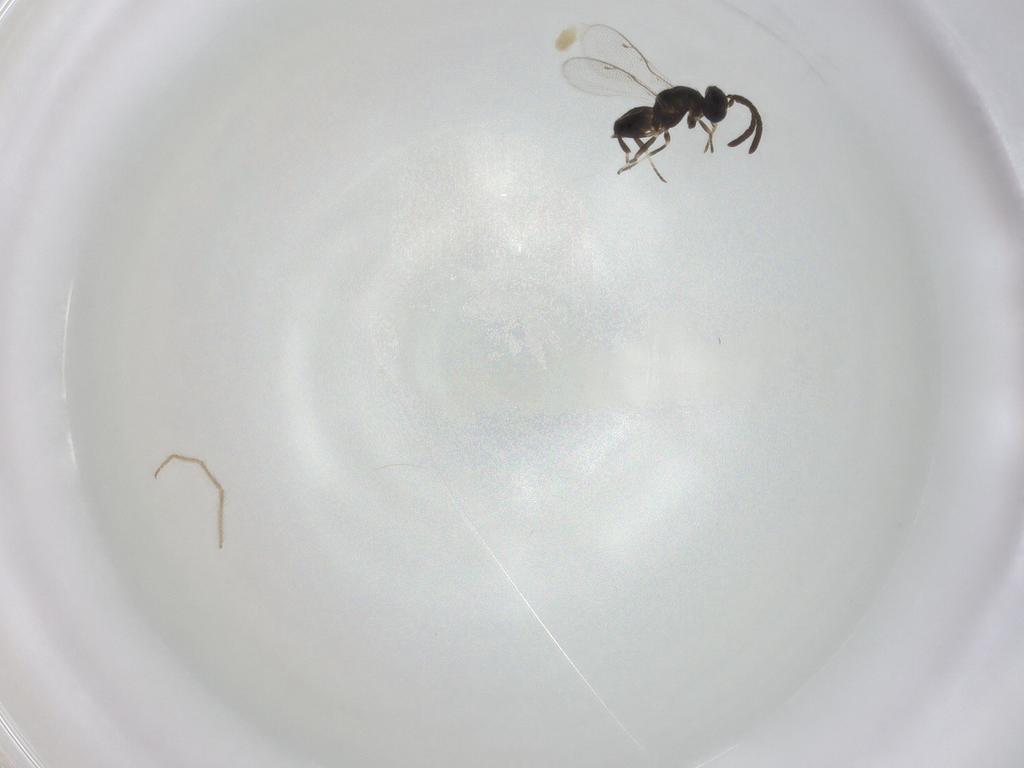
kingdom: Animalia
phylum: Arthropoda
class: Insecta
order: Hymenoptera
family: Eupelmidae
